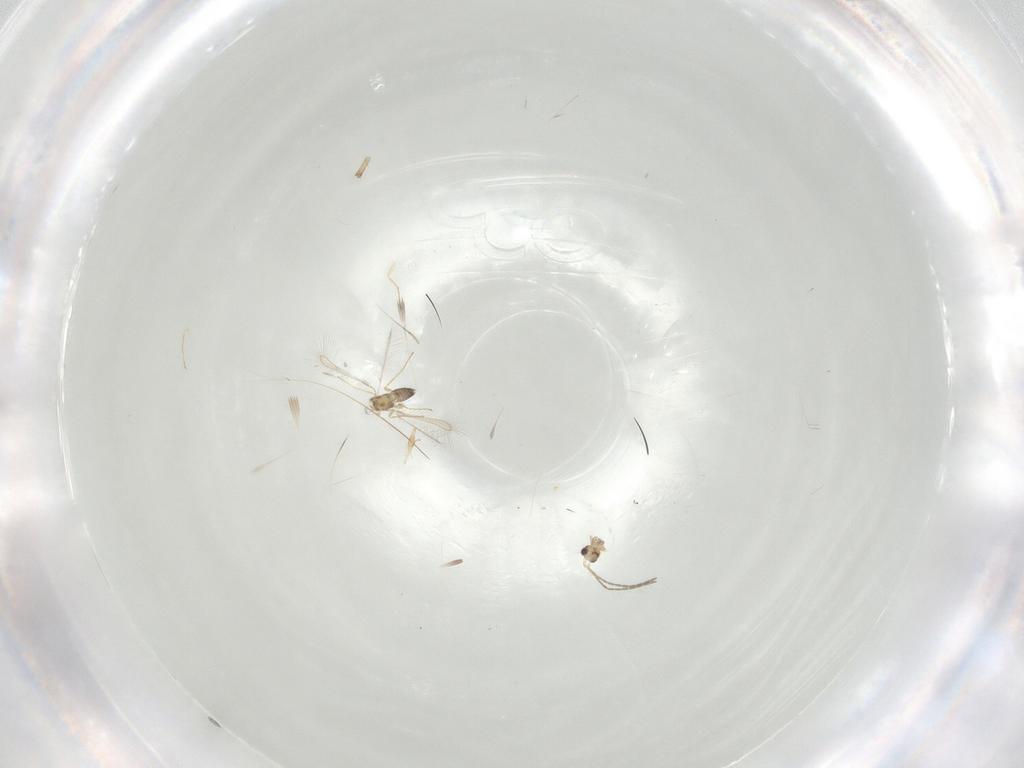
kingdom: Animalia
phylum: Arthropoda
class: Insecta
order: Hymenoptera
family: Mymaridae
